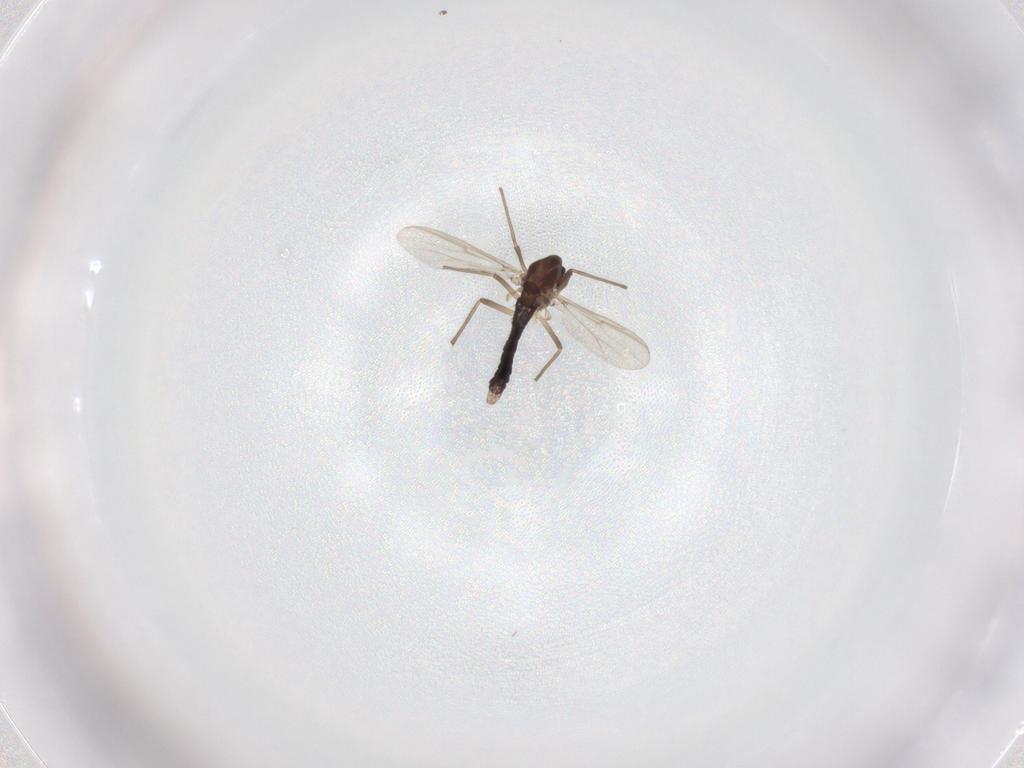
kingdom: Animalia
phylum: Arthropoda
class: Insecta
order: Diptera
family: Chironomidae
